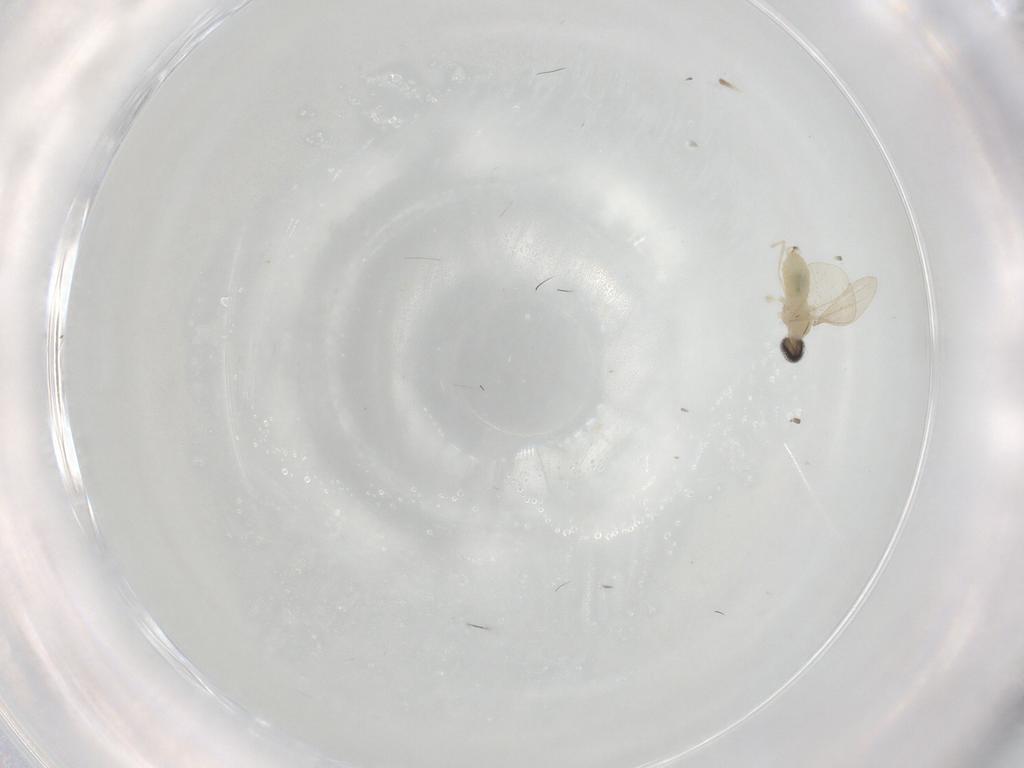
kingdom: Animalia
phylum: Arthropoda
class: Insecta
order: Diptera
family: Cecidomyiidae
